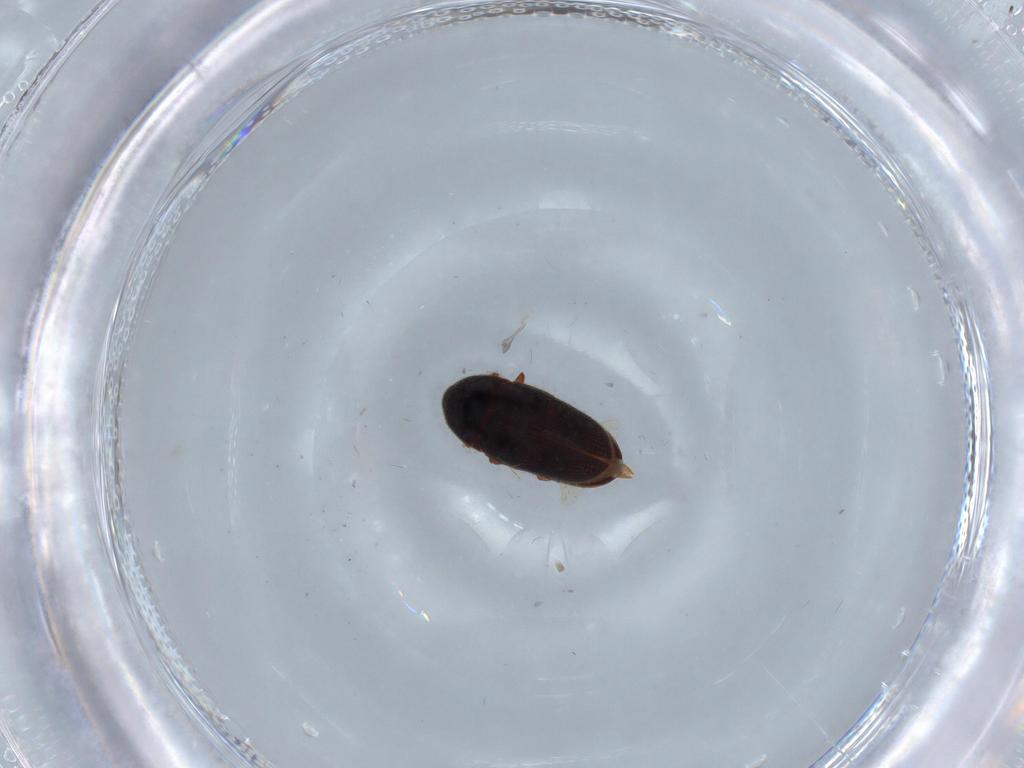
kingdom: Animalia
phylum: Arthropoda
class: Insecta
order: Coleoptera
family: Throscidae
